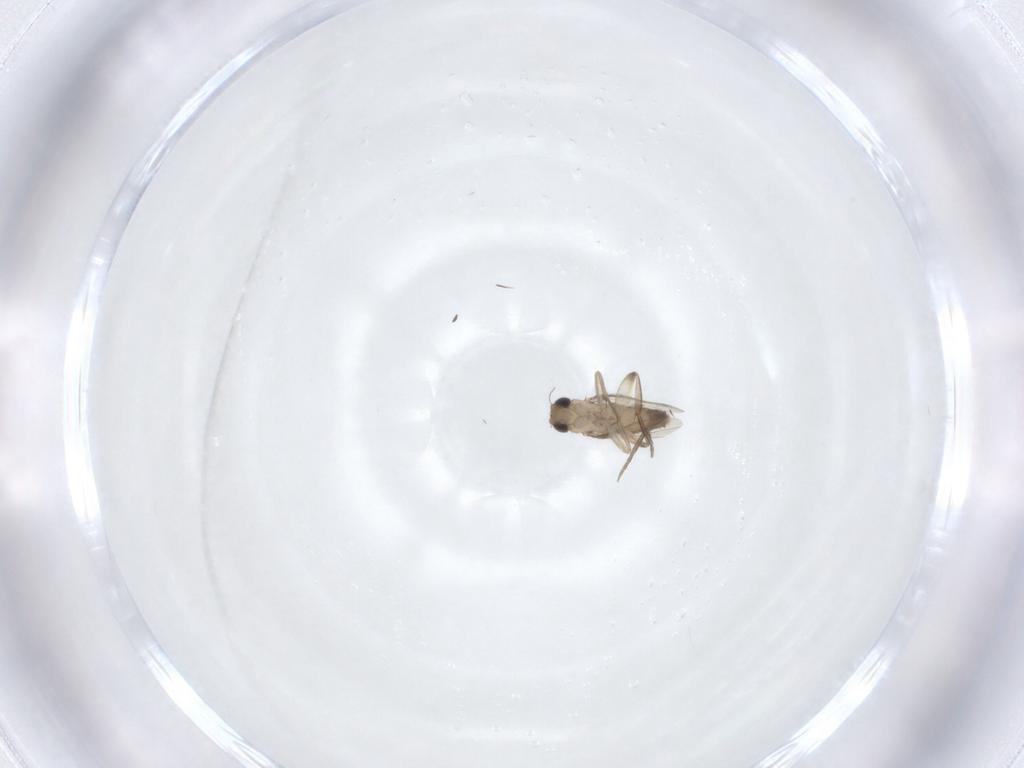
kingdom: Animalia
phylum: Arthropoda
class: Insecta
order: Diptera
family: Phoridae
